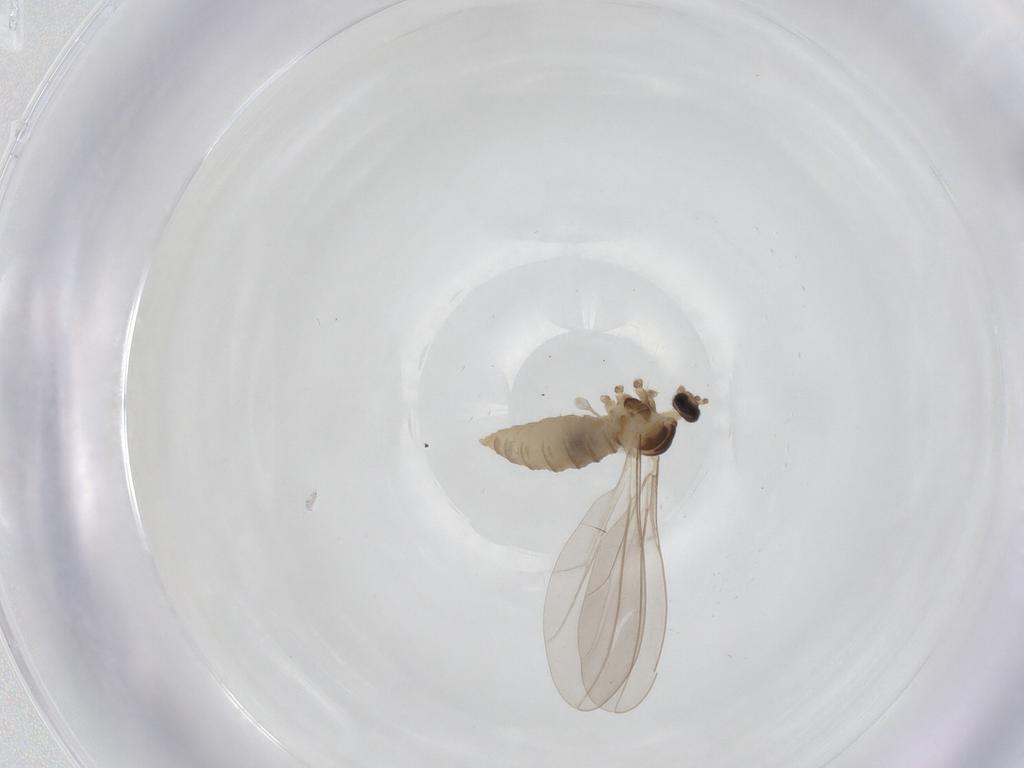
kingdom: Animalia
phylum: Arthropoda
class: Insecta
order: Diptera
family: Cecidomyiidae
